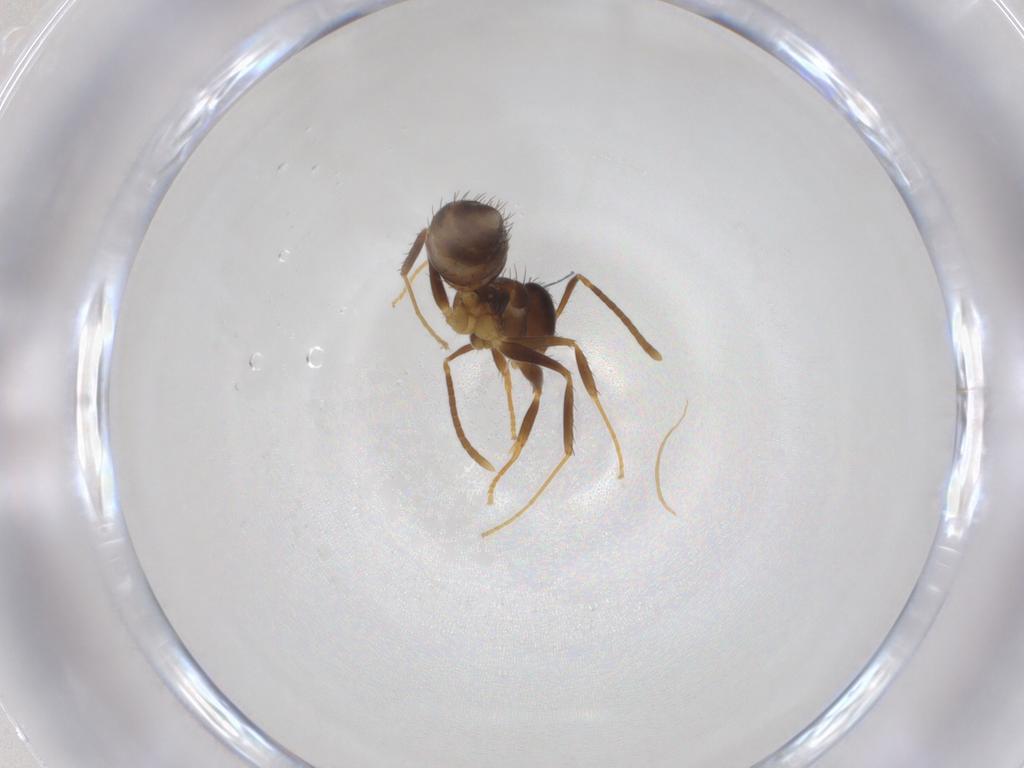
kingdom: Animalia
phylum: Arthropoda
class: Insecta
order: Hymenoptera
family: Formicidae
